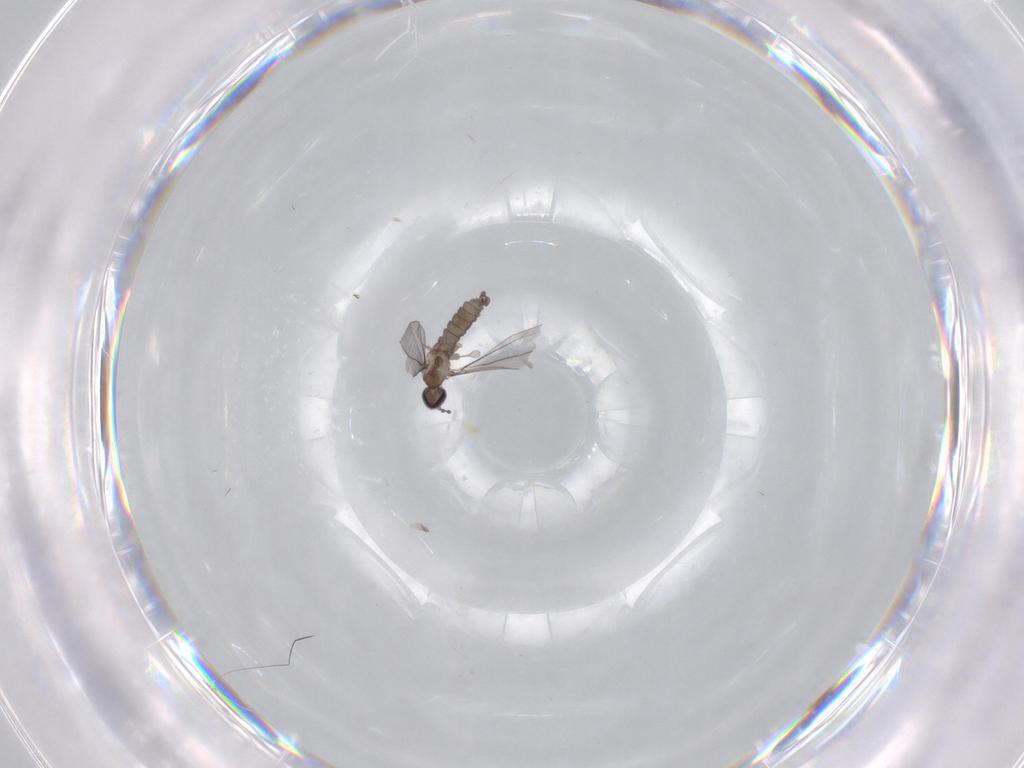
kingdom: Animalia
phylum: Arthropoda
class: Insecta
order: Diptera
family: Cecidomyiidae
